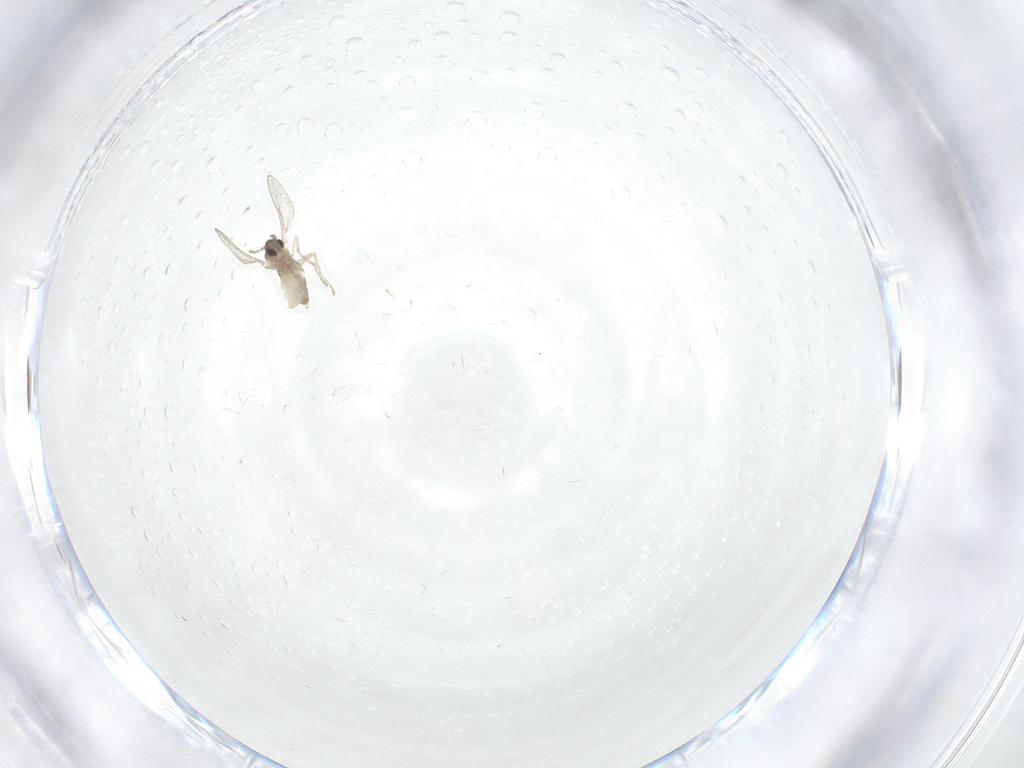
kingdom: Animalia
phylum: Arthropoda
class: Insecta
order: Diptera
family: Cecidomyiidae
